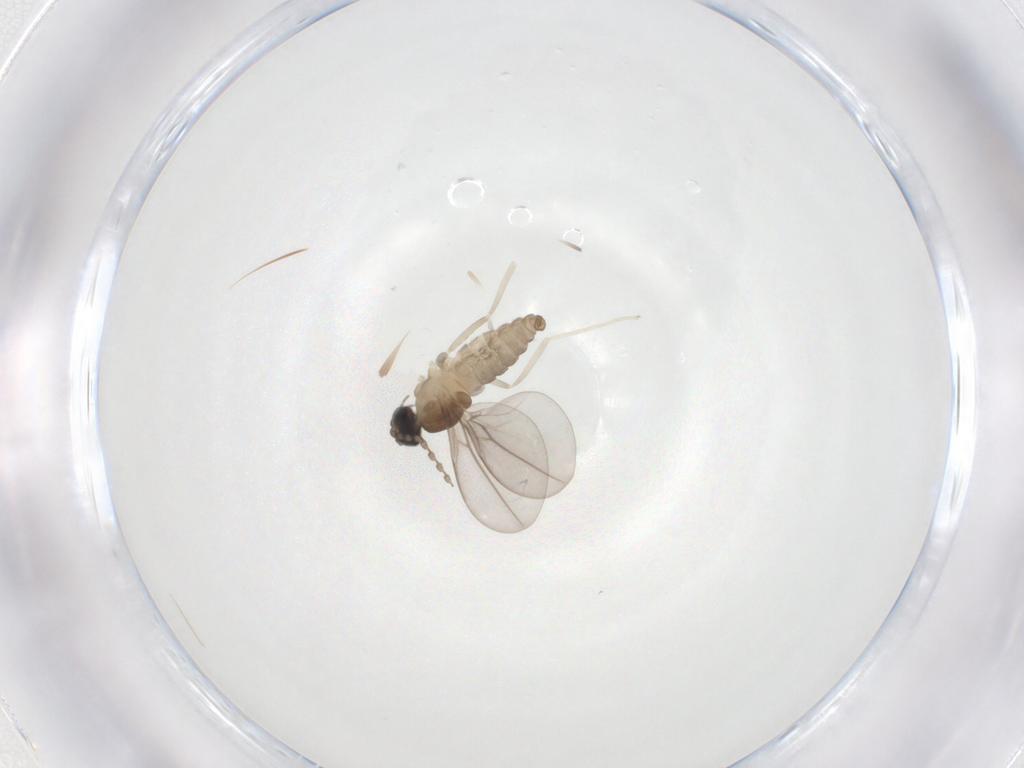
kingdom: Animalia
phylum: Arthropoda
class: Insecta
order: Diptera
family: Cecidomyiidae
